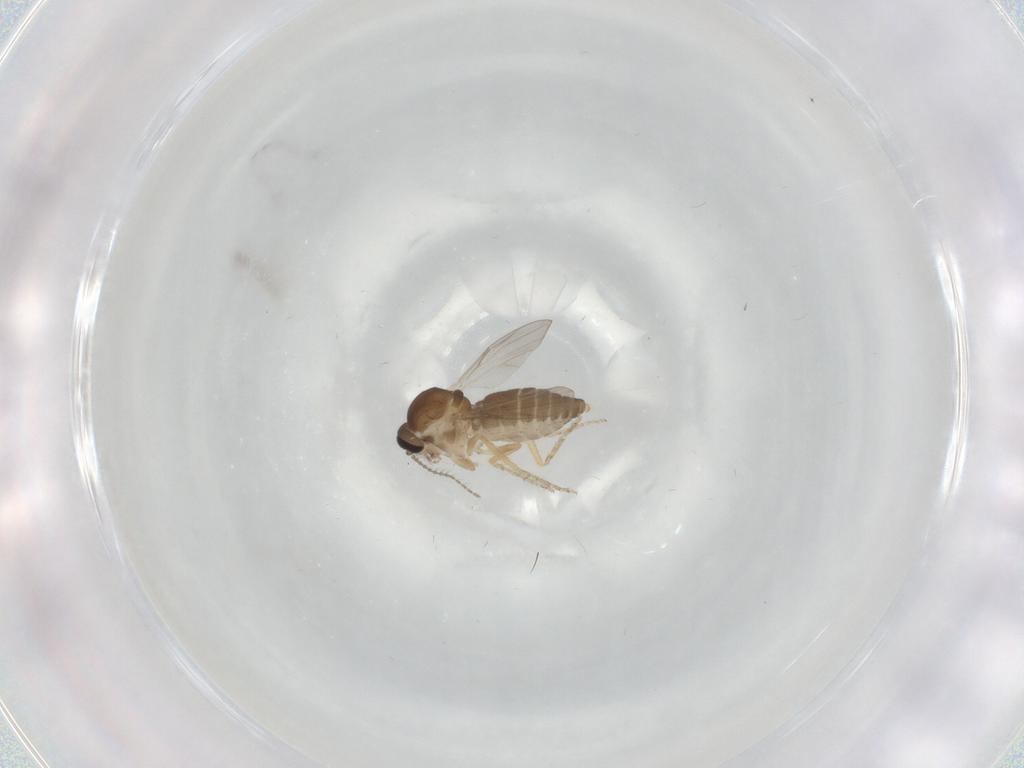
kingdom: Animalia
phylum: Arthropoda
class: Insecta
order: Diptera
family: Ceratopogonidae
